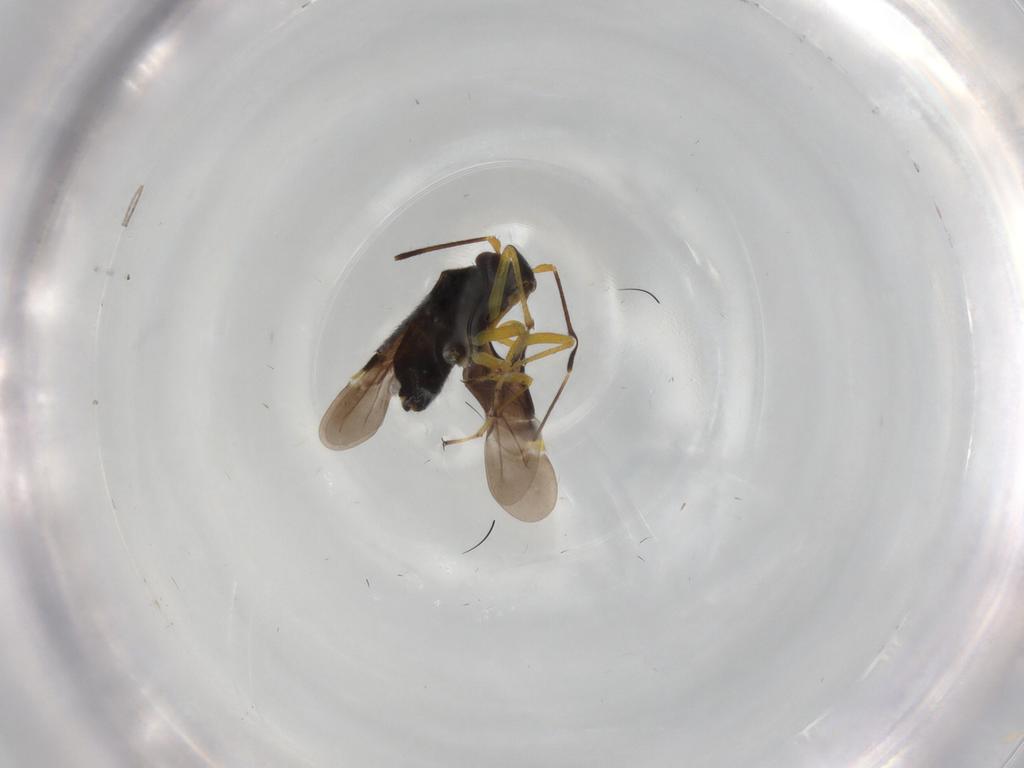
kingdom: Animalia
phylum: Arthropoda
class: Insecta
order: Hemiptera
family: Miridae
